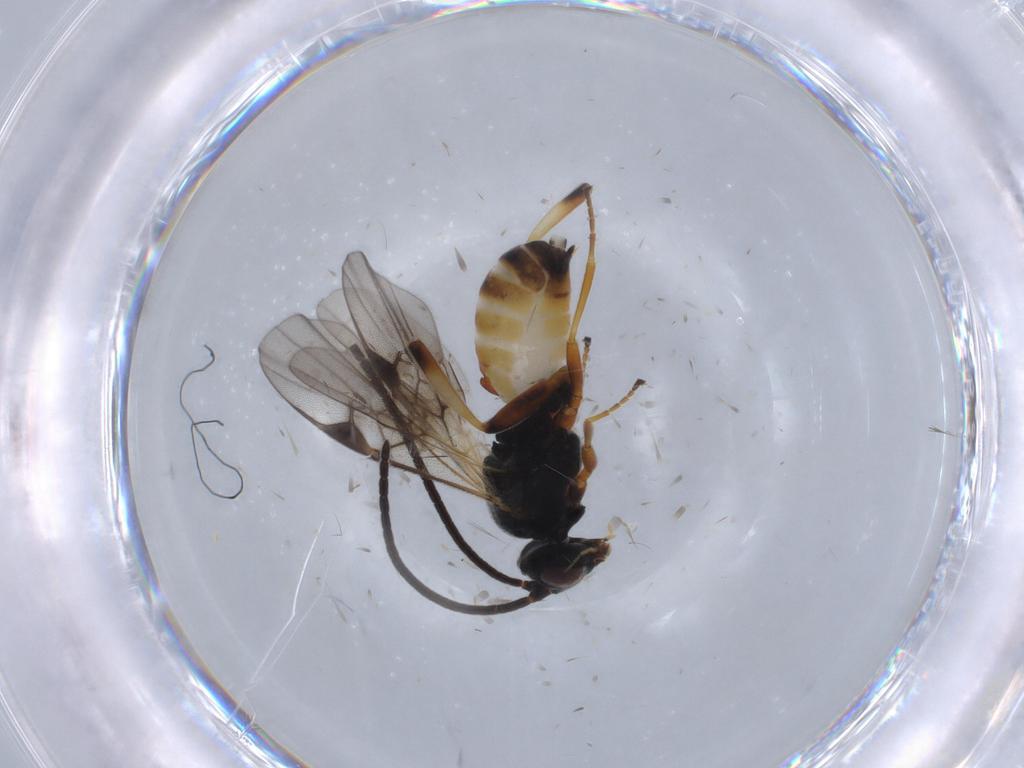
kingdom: Animalia
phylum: Arthropoda
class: Insecta
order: Hymenoptera
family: Braconidae
